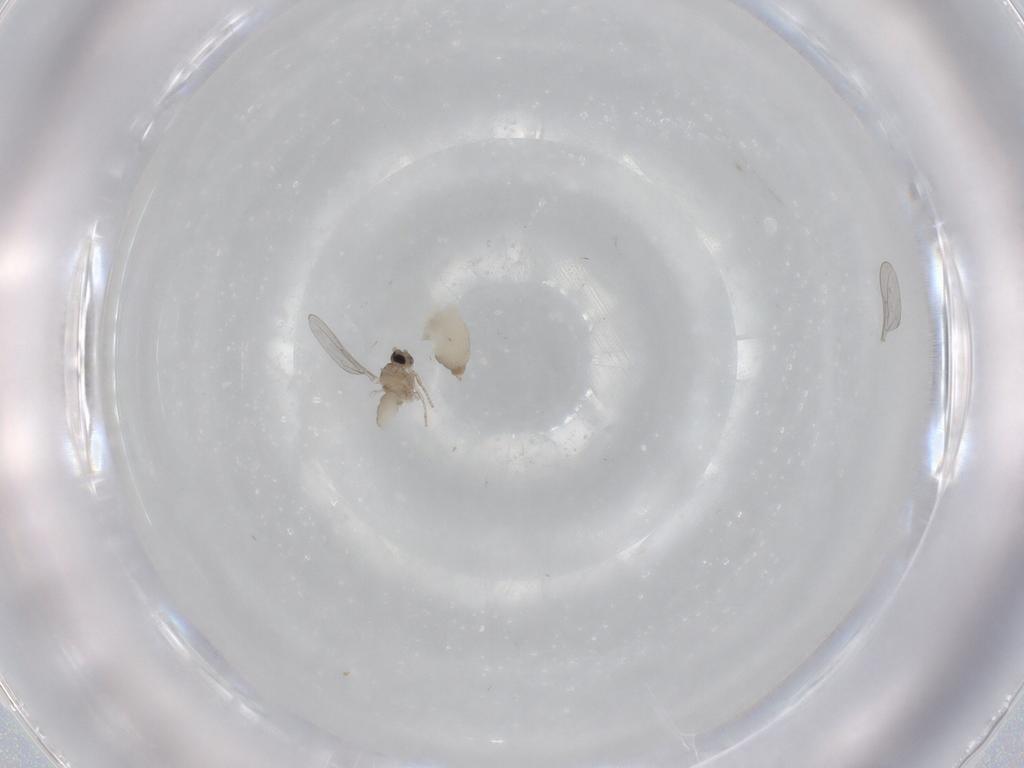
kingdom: Animalia
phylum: Arthropoda
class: Insecta
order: Diptera
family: Cecidomyiidae
